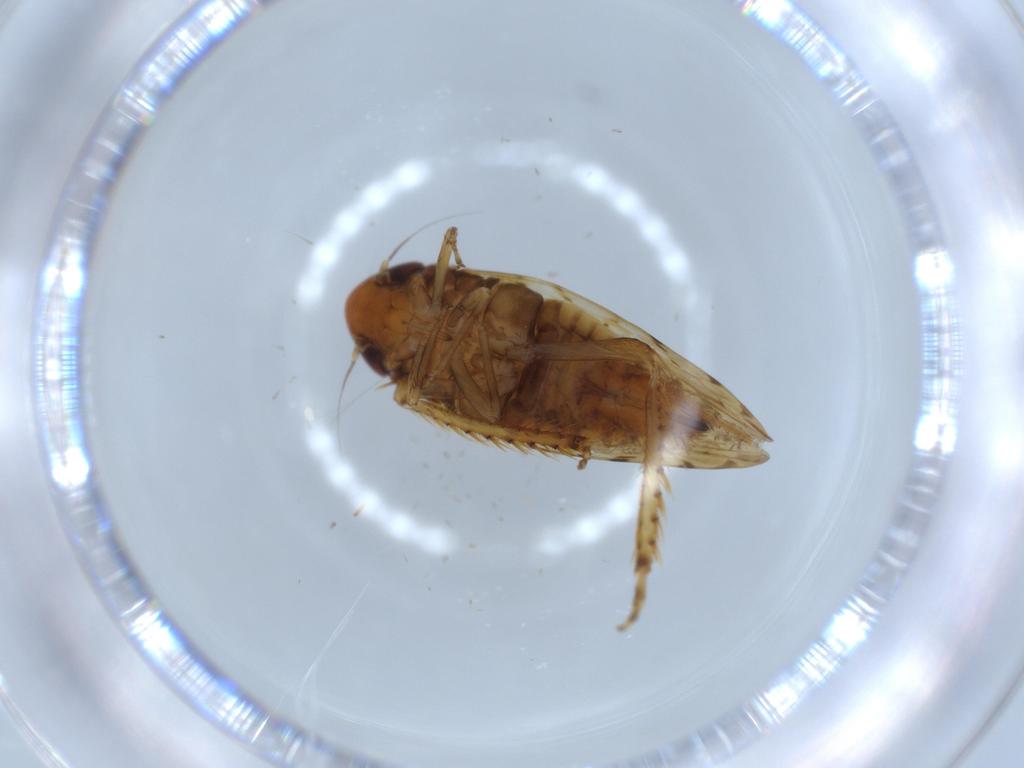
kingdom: Animalia
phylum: Arthropoda
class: Insecta
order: Hemiptera
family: Cicadellidae
